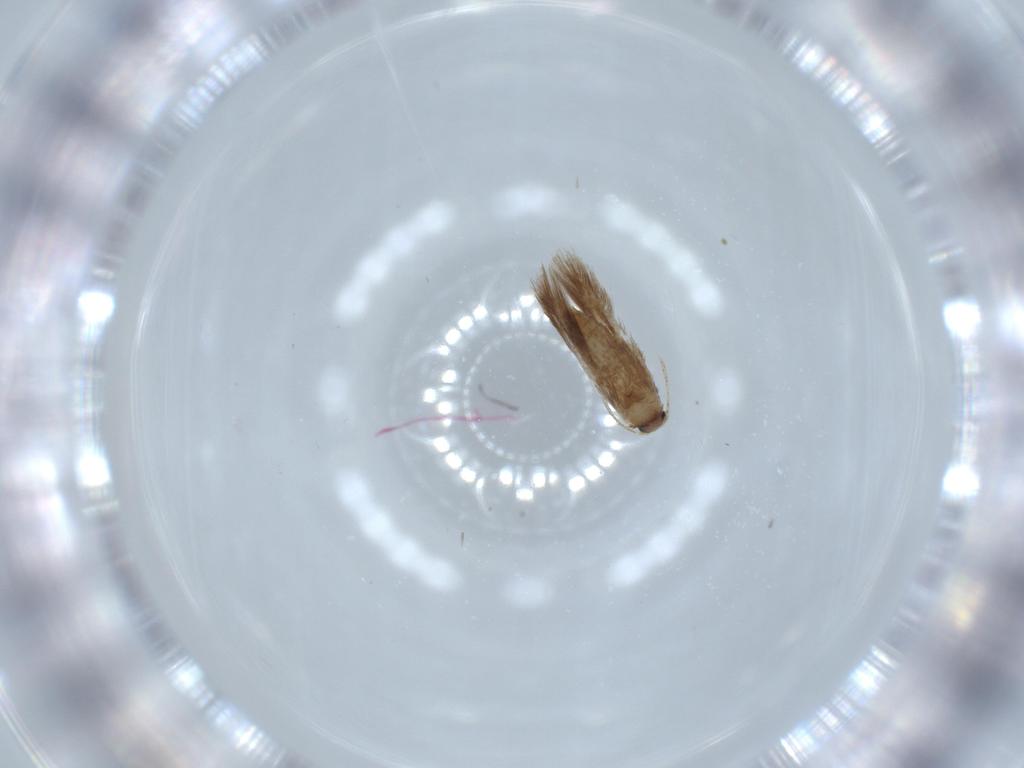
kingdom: Animalia
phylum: Arthropoda
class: Insecta
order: Lepidoptera
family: Nepticulidae
